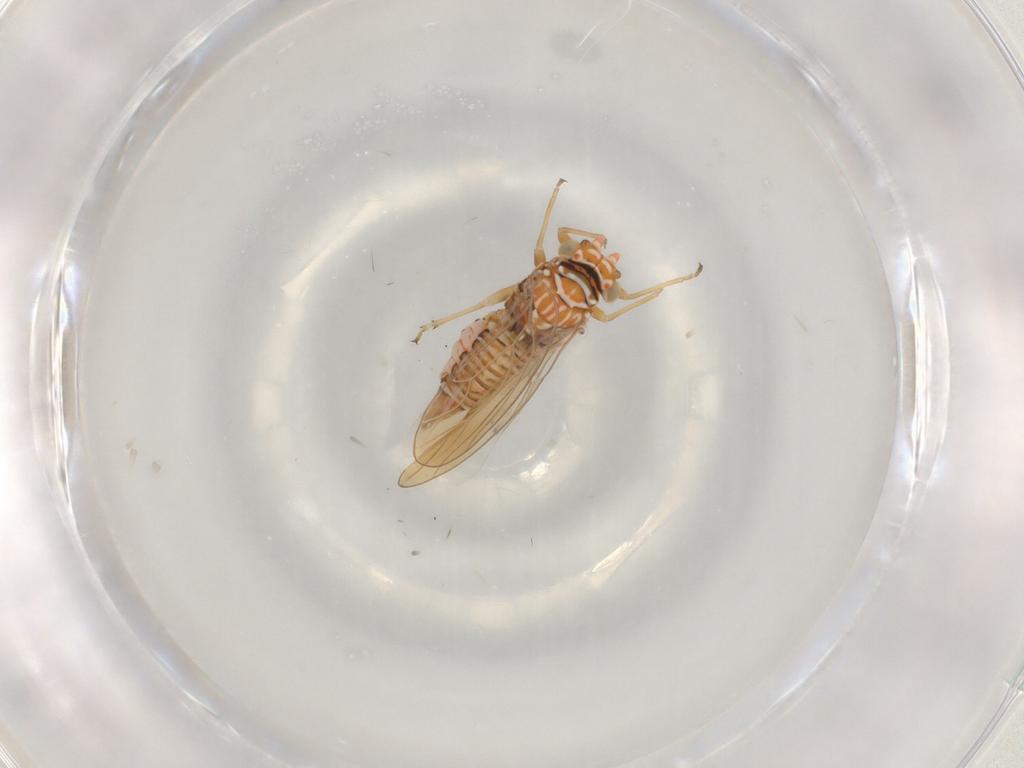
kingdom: Animalia
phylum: Arthropoda
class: Insecta
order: Hemiptera
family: Psyllidae
